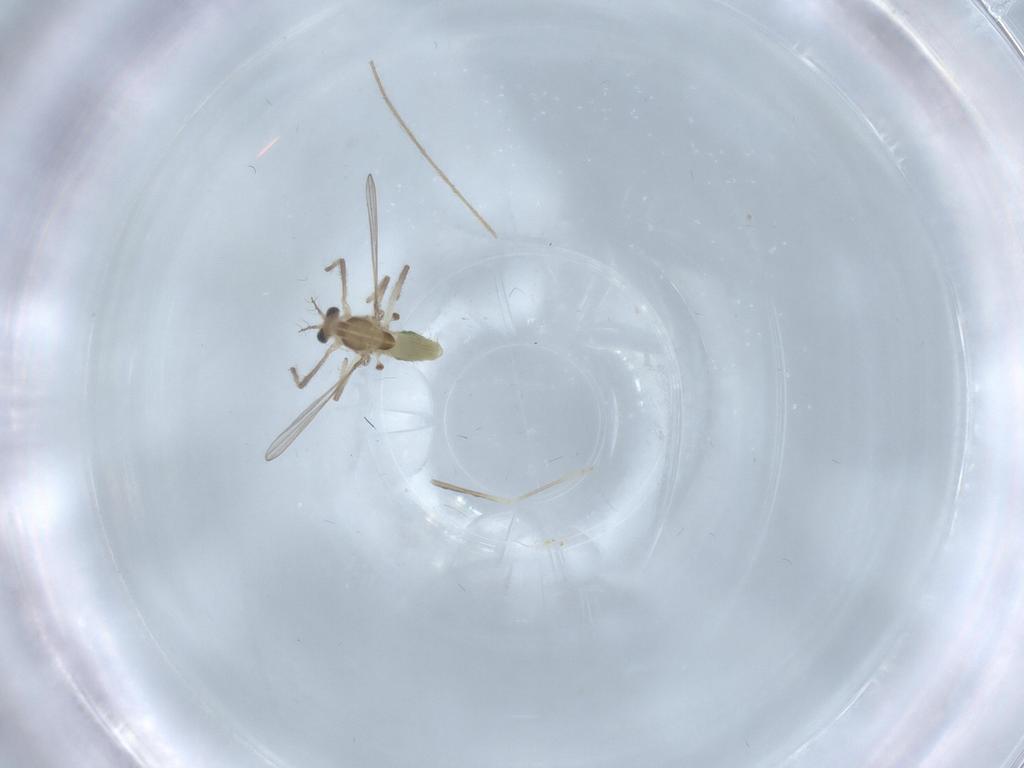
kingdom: Animalia
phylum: Arthropoda
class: Insecta
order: Diptera
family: Chironomidae
